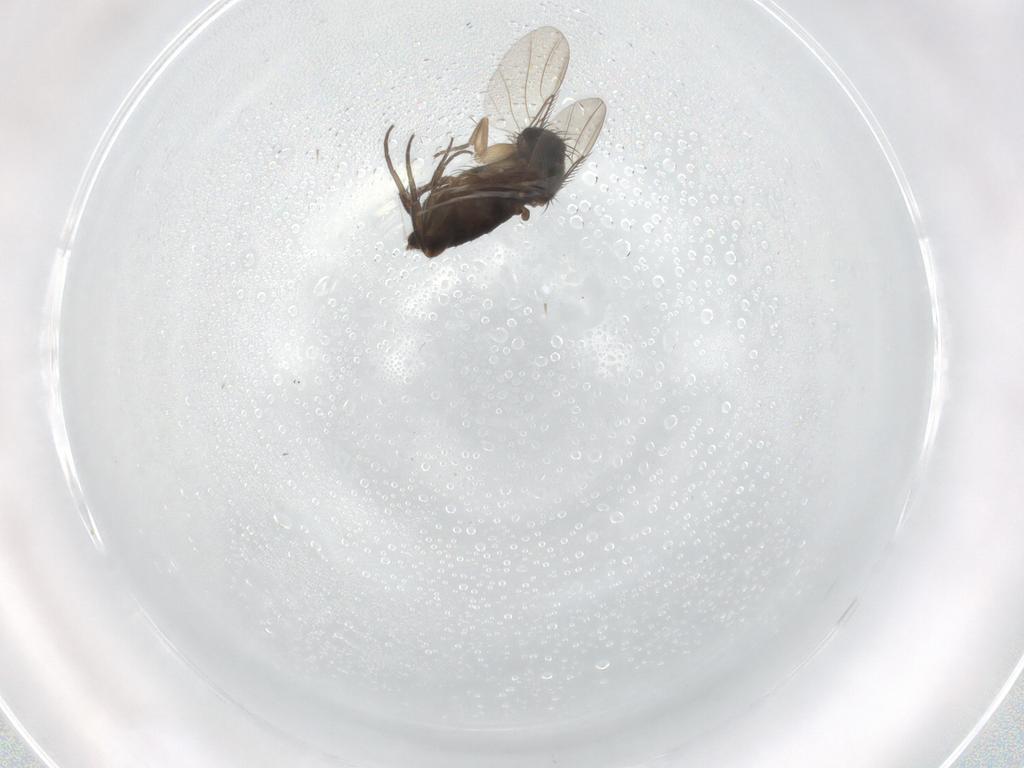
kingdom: Animalia
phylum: Arthropoda
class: Insecta
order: Diptera
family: Phoridae
